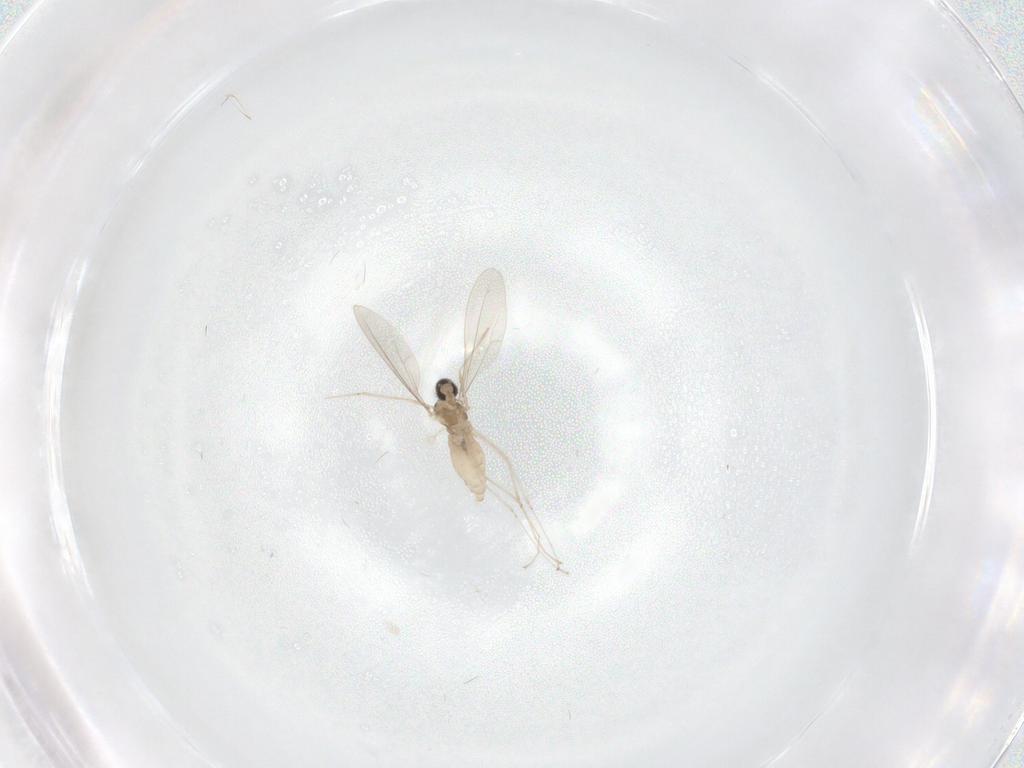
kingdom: Animalia
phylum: Arthropoda
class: Insecta
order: Diptera
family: Cecidomyiidae
